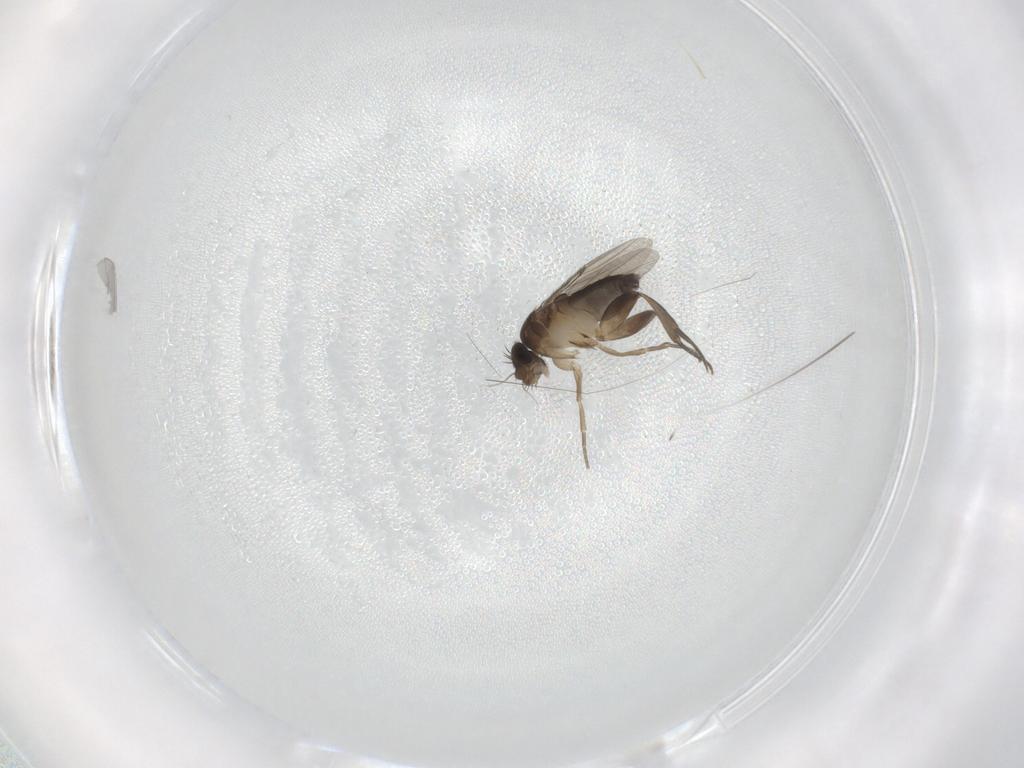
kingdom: Animalia
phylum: Arthropoda
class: Insecta
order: Diptera
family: Phoridae
